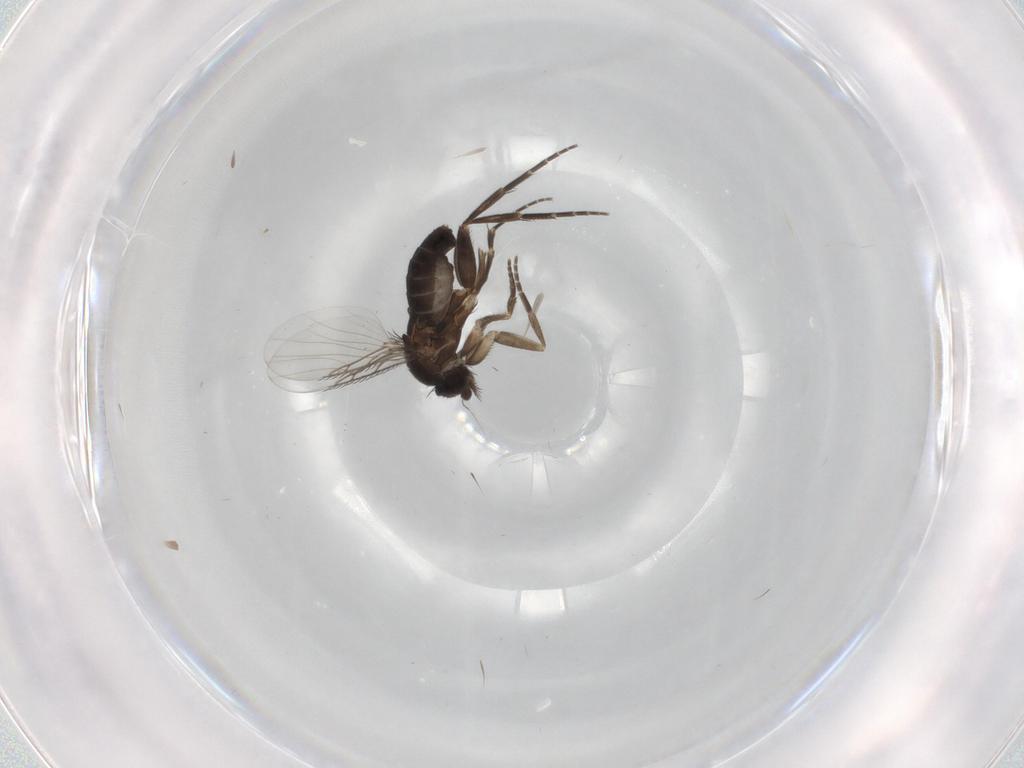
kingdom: Animalia
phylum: Arthropoda
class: Insecta
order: Diptera
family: Phoridae
